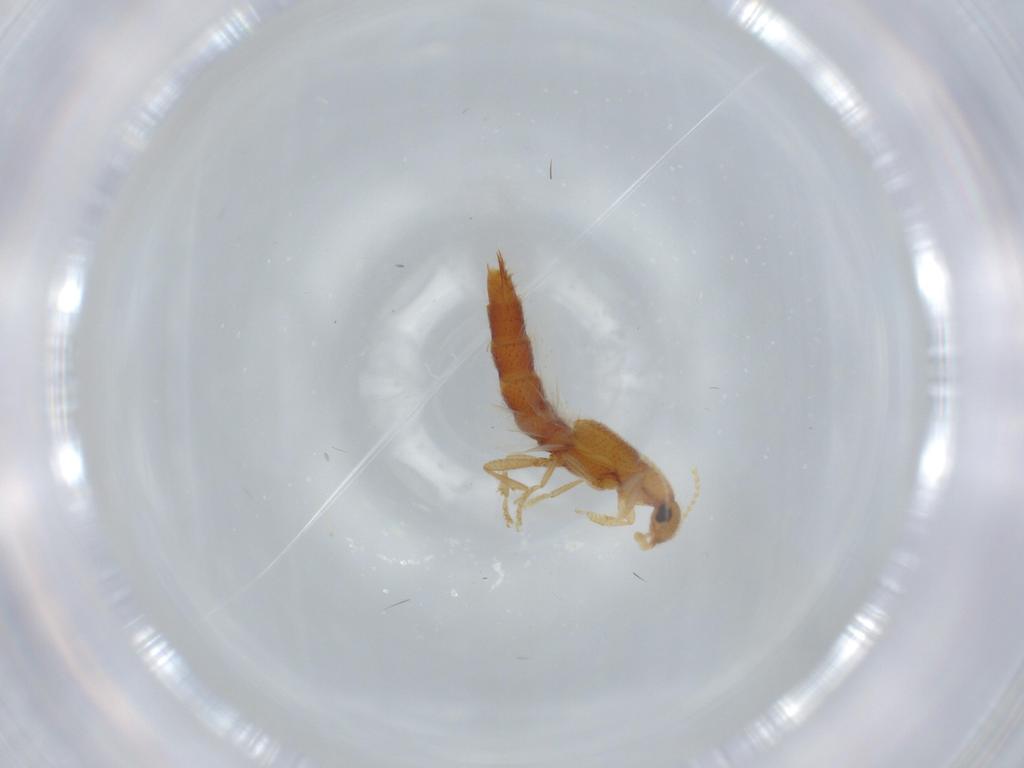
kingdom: Animalia
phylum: Arthropoda
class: Insecta
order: Coleoptera
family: Staphylinidae
